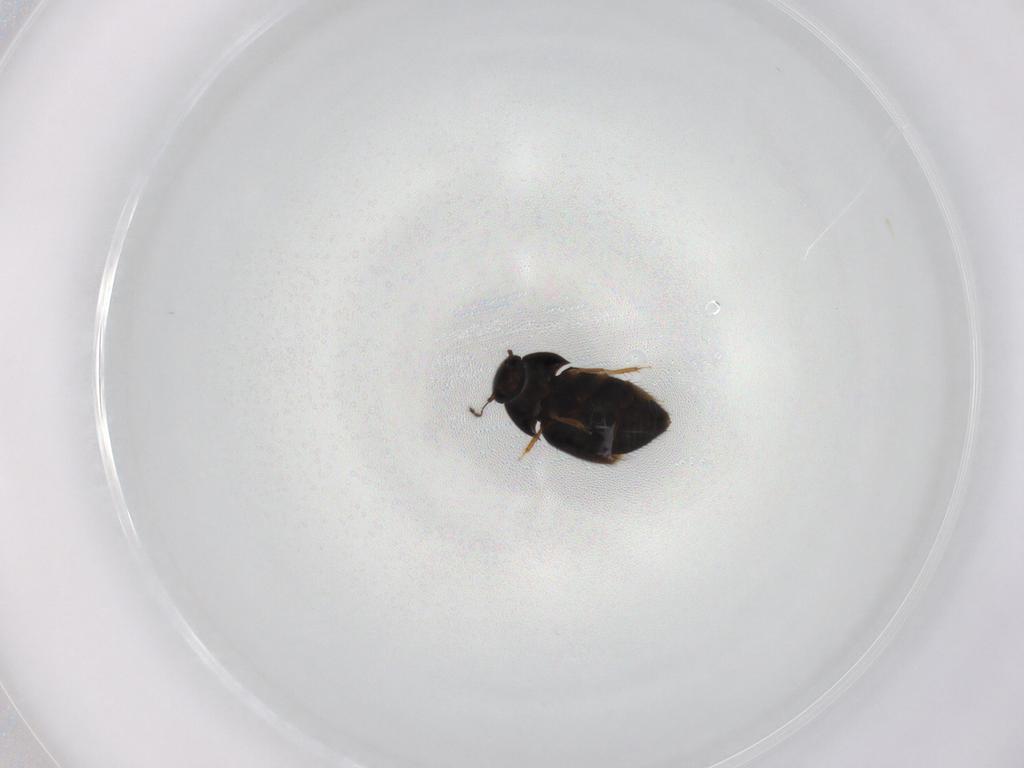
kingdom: Animalia
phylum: Arthropoda
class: Insecta
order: Coleoptera
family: Ptiliidae
